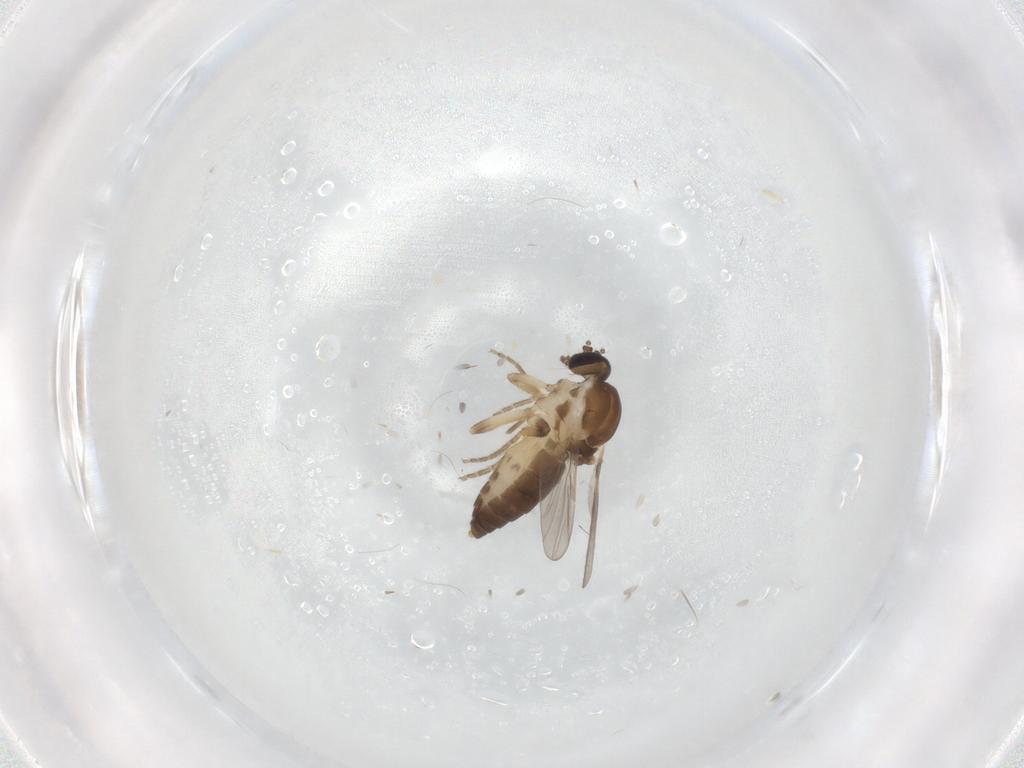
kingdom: Animalia
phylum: Arthropoda
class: Insecta
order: Diptera
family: Ceratopogonidae
